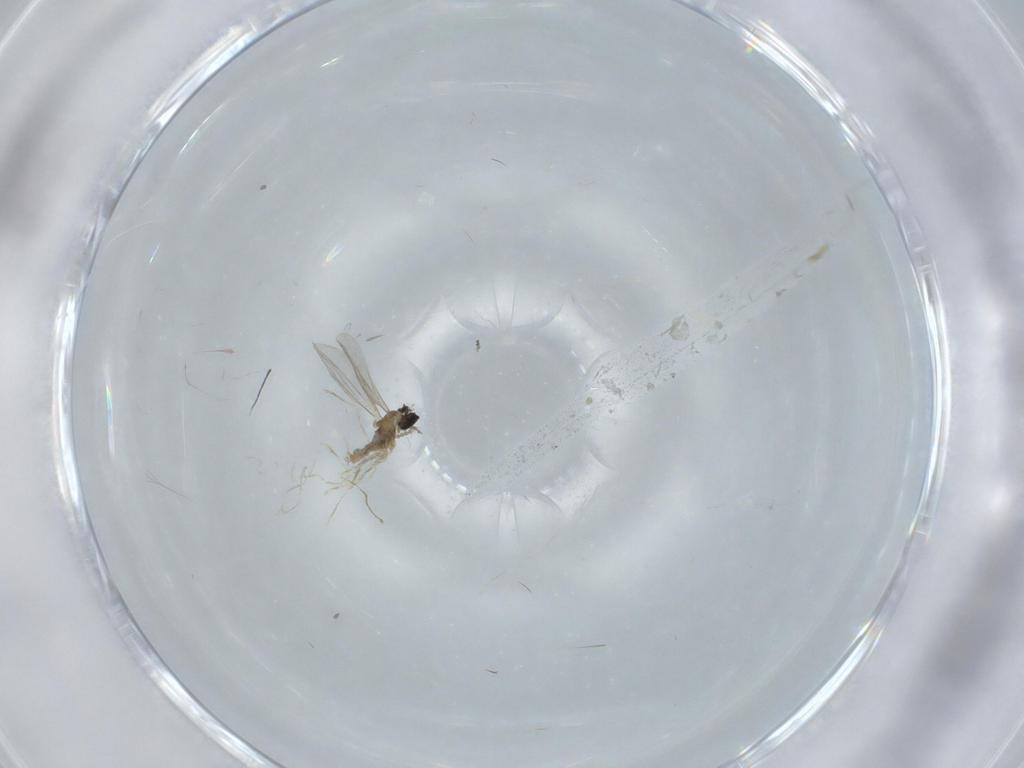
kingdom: Animalia
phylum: Arthropoda
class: Insecta
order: Diptera
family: Cecidomyiidae
